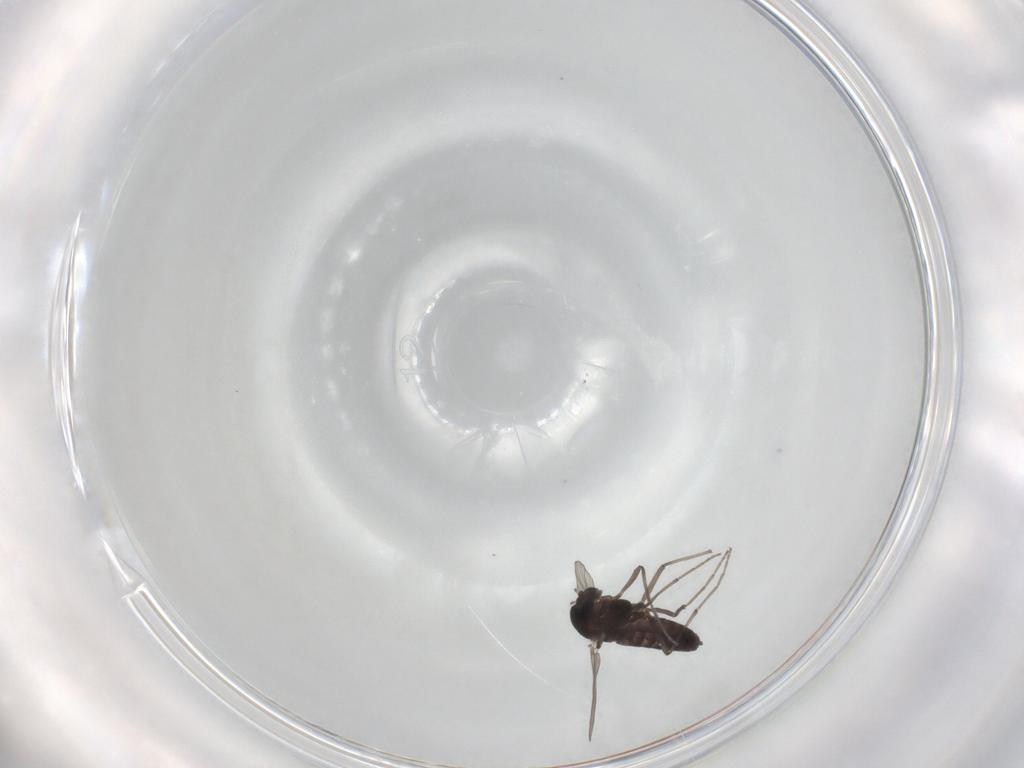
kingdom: Animalia
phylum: Arthropoda
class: Insecta
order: Diptera
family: Chironomidae
